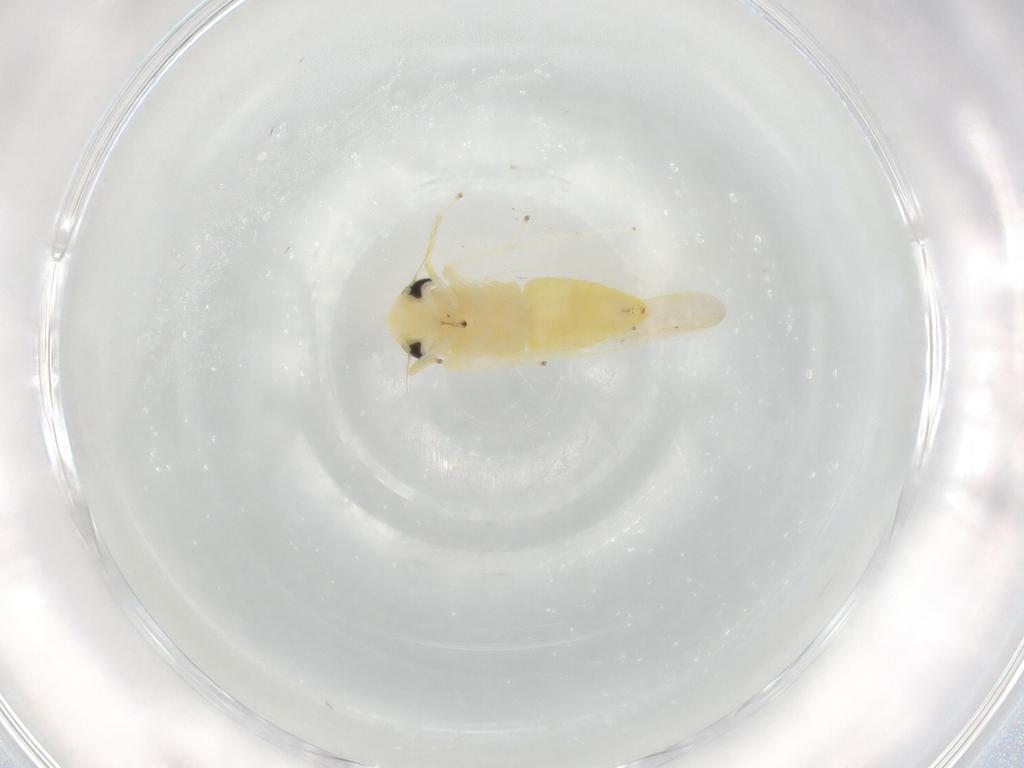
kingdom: Animalia
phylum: Arthropoda
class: Insecta
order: Hemiptera
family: Cicadellidae
